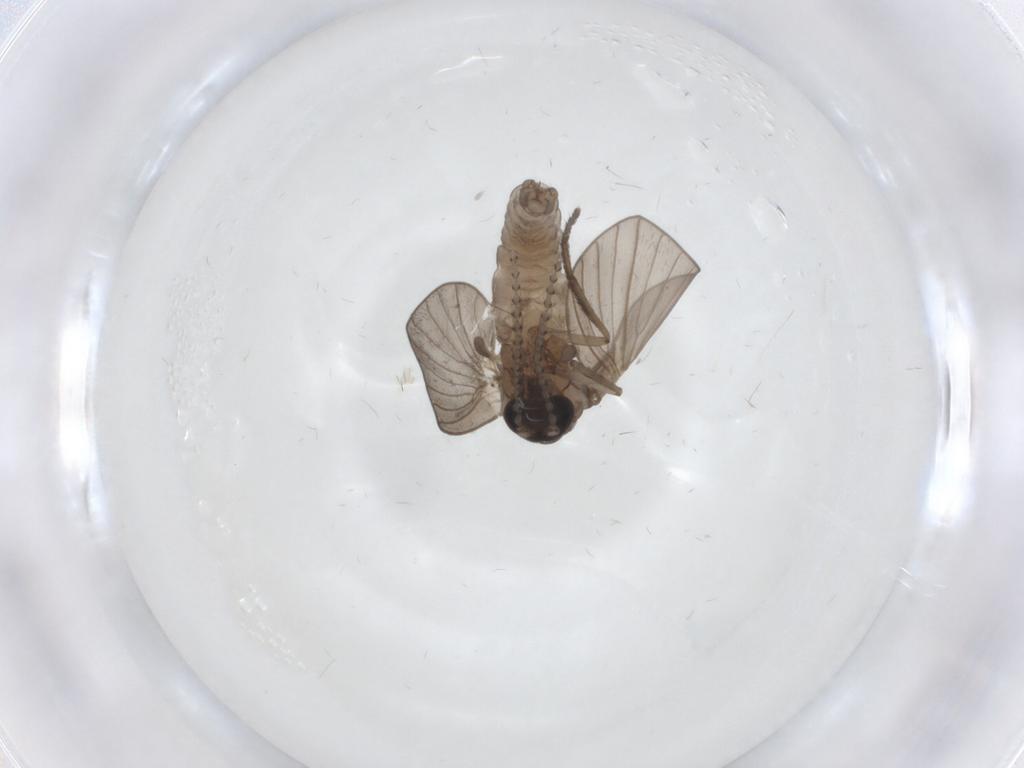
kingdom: Animalia
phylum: Arthropoda
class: Insecta
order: Diptera
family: Psychodidae
